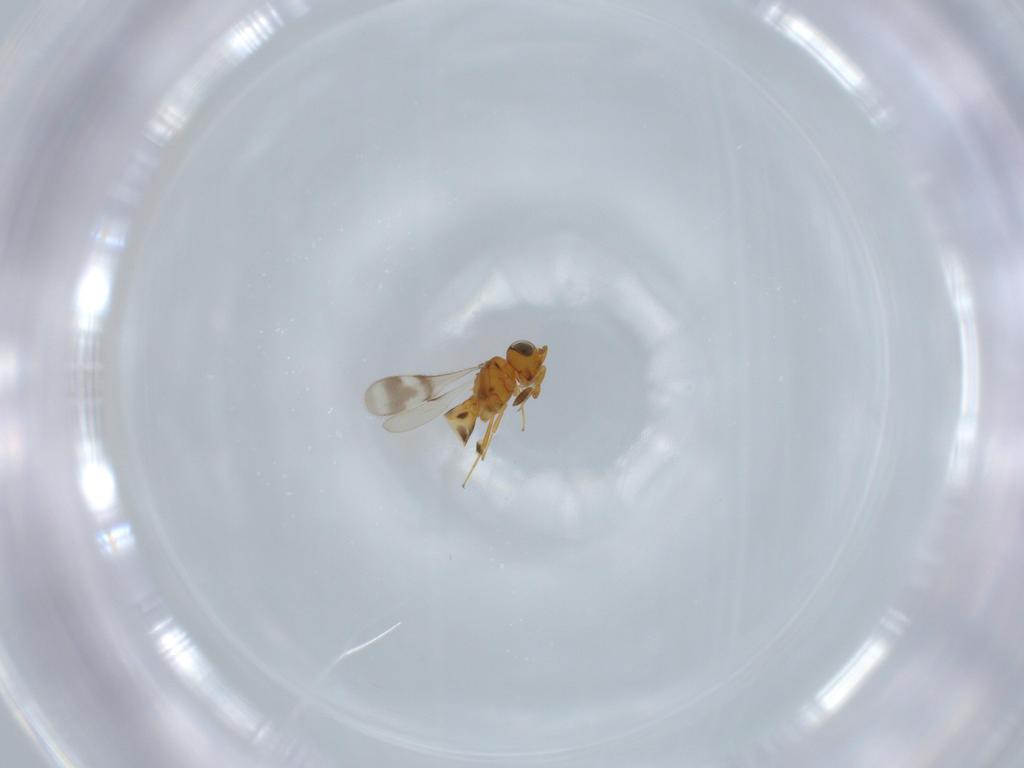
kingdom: Animalia
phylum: Arthropoda
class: Insecta
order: Hymenoptera
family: Scelionidae
